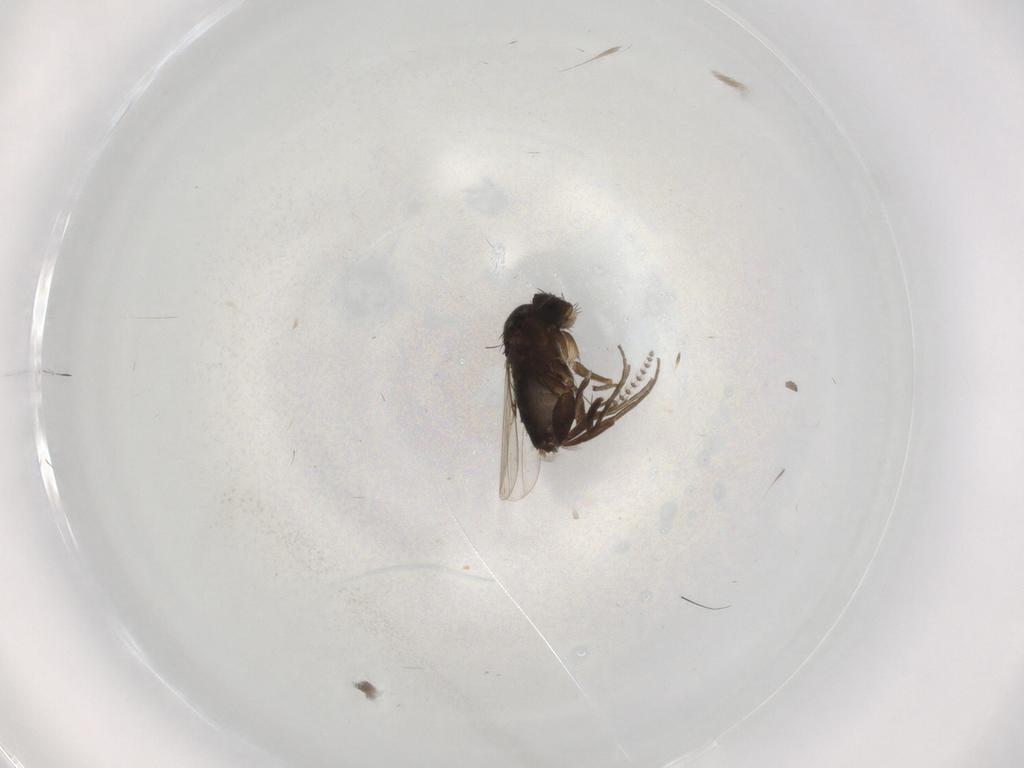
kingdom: Animalia
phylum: Arthropoda
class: Insecta
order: Diptera
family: Phoridae
